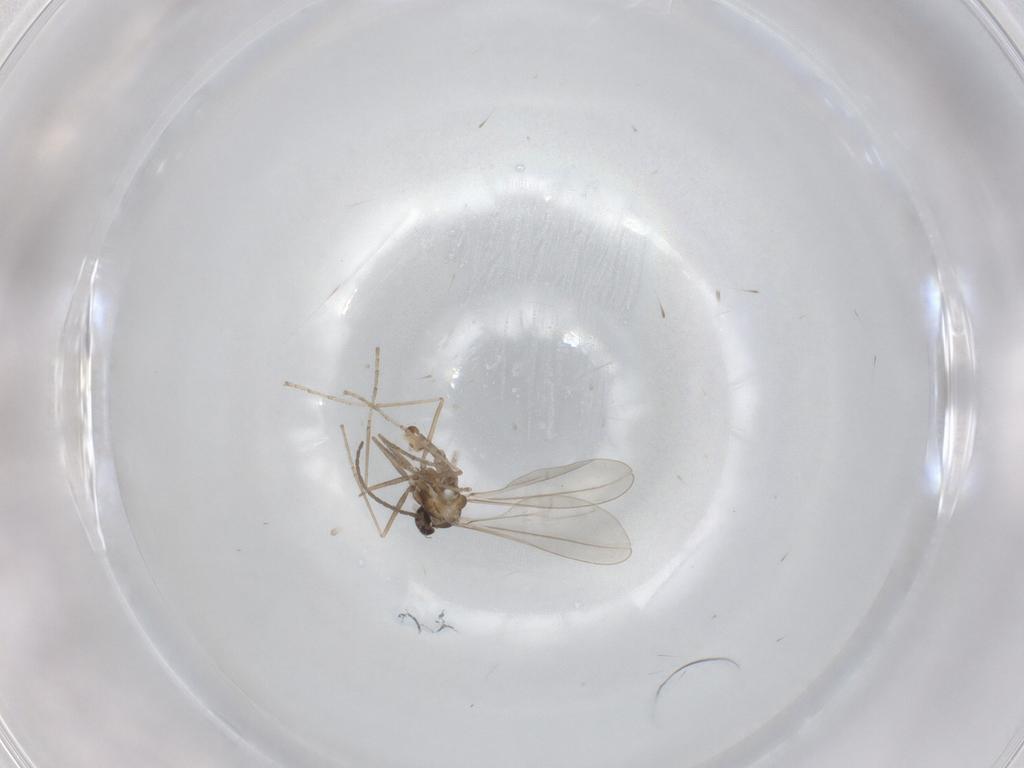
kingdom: Animalia
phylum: Arthropoda
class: Insecta
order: Diptera
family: Cecidomyiidae
